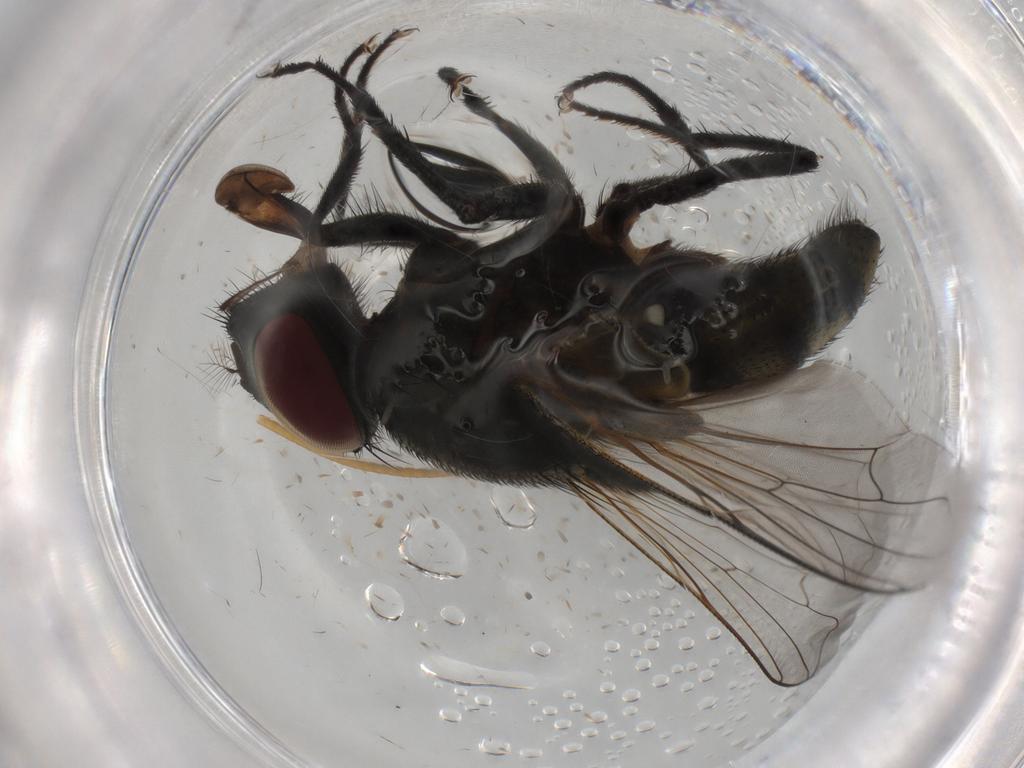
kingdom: Animalia
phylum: Arthropoda
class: Insecta
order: Diptera
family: Muscidae
